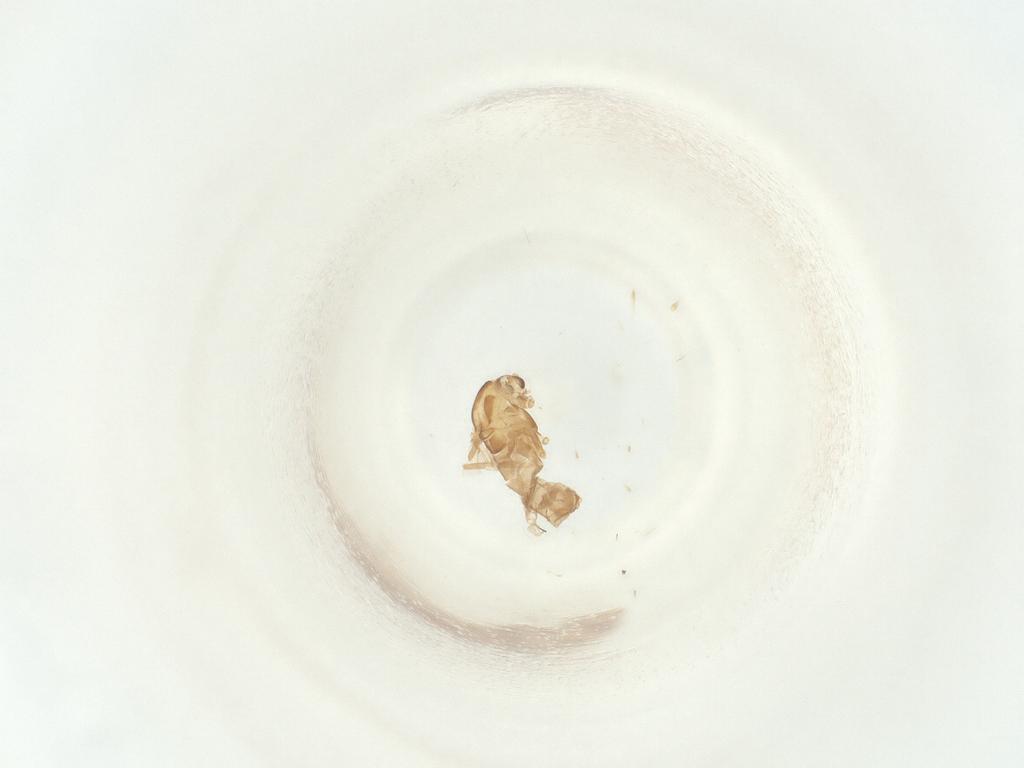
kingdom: Animalia
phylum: Arthropoda
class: Insecta
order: Diptera
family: Chironomidae
